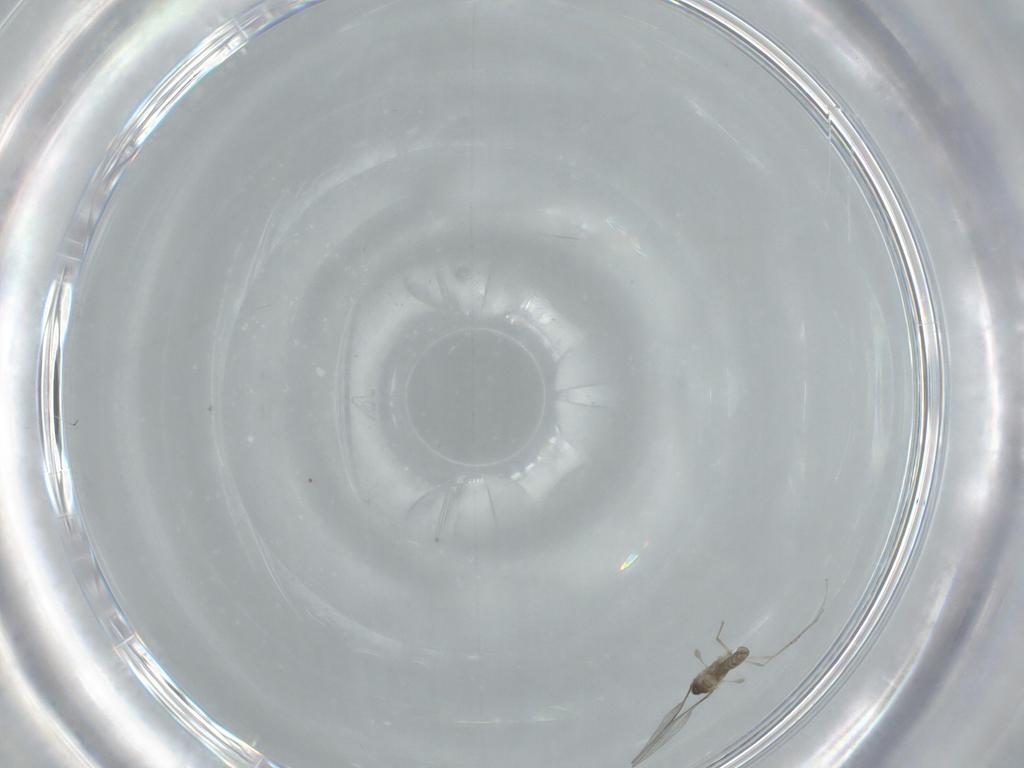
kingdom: Animalia
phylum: Arthropoda
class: Insecta
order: Diptera
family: Cecidomyiidae
